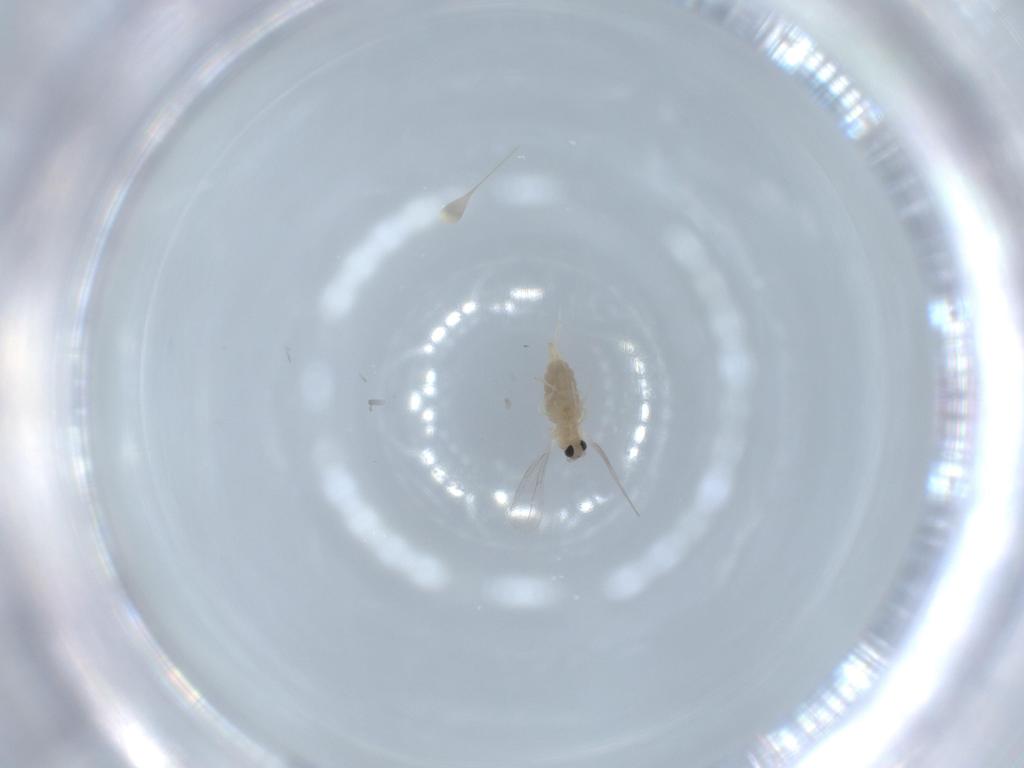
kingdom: Animalia
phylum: Arthropoda
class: Insecta
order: Diptera
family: Cecidomyiidae
